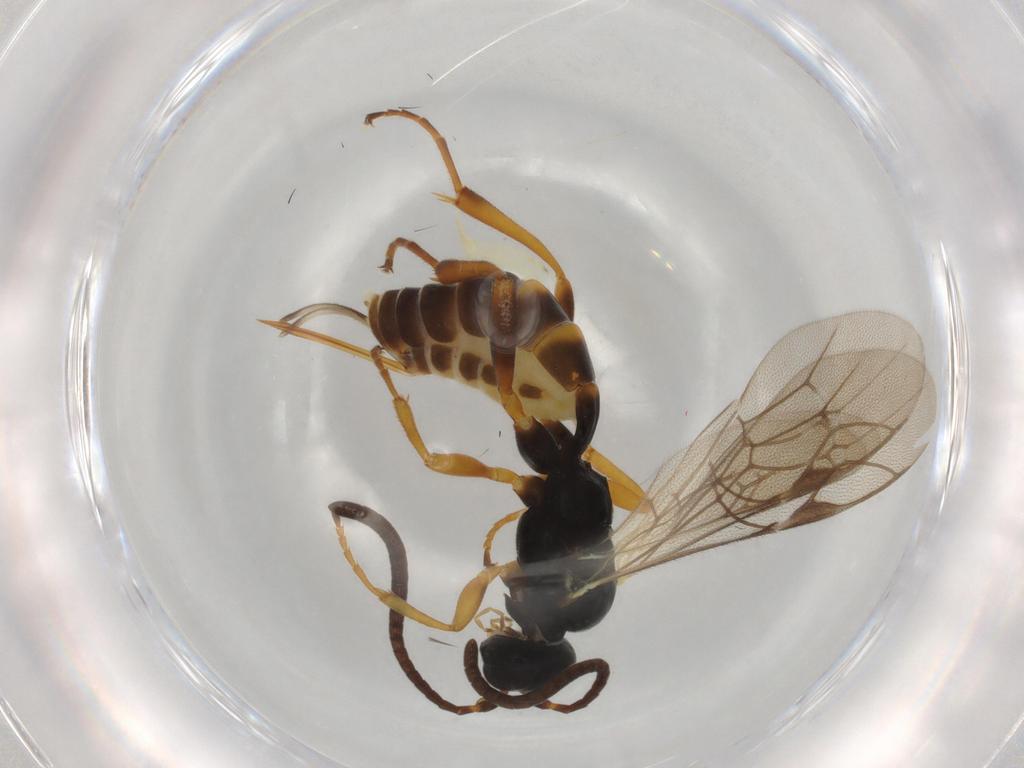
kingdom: Animalia
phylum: Arthropoda
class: Insecta
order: Hymenoptera
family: Ichneumonidae
